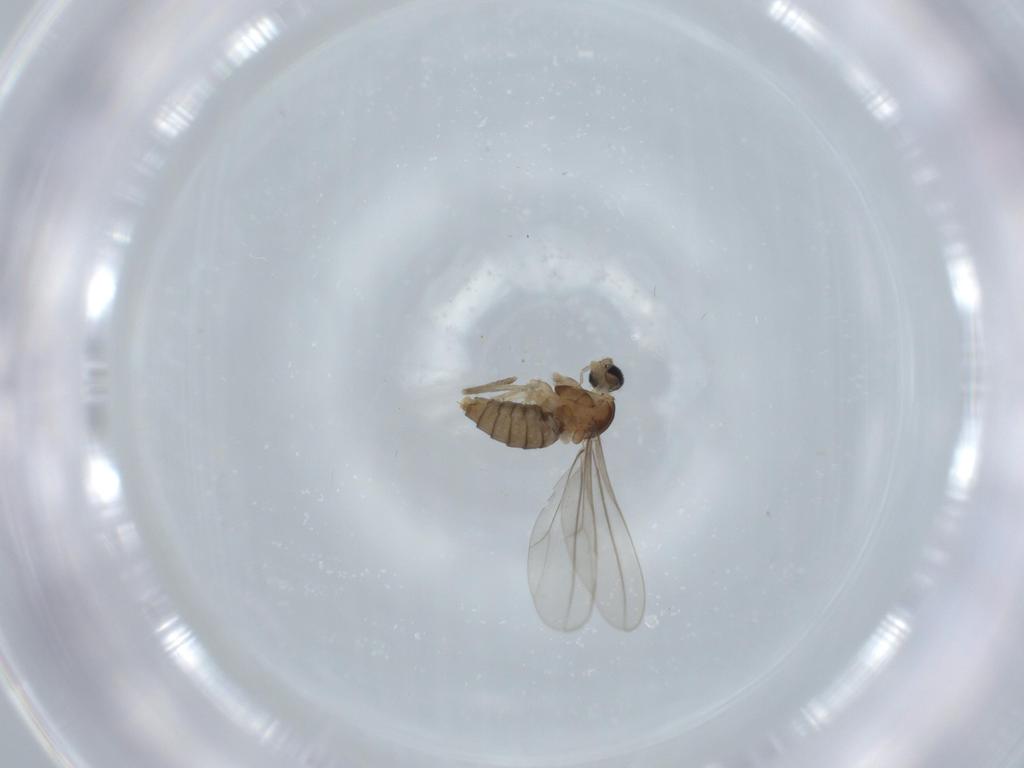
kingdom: Animalia
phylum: Arthropoda
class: Insecta
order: Diptera
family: Cecidomyiidae
